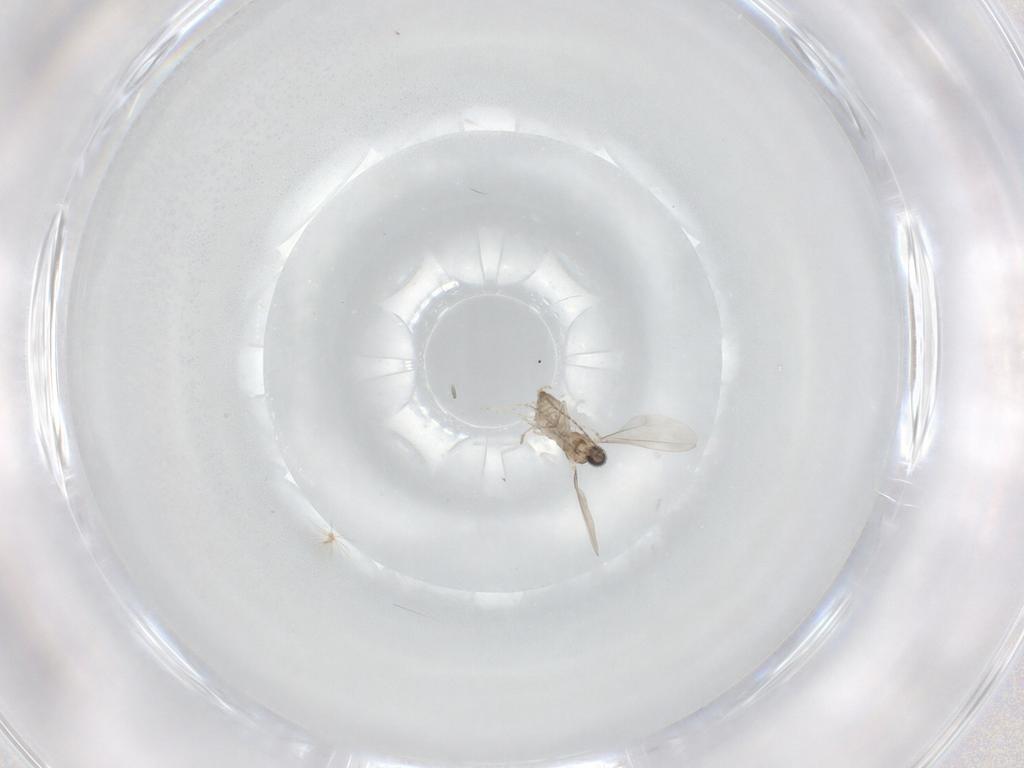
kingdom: Animalia
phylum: Arthropoda
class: Insecta
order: Diptera
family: Cecidomyiidae
